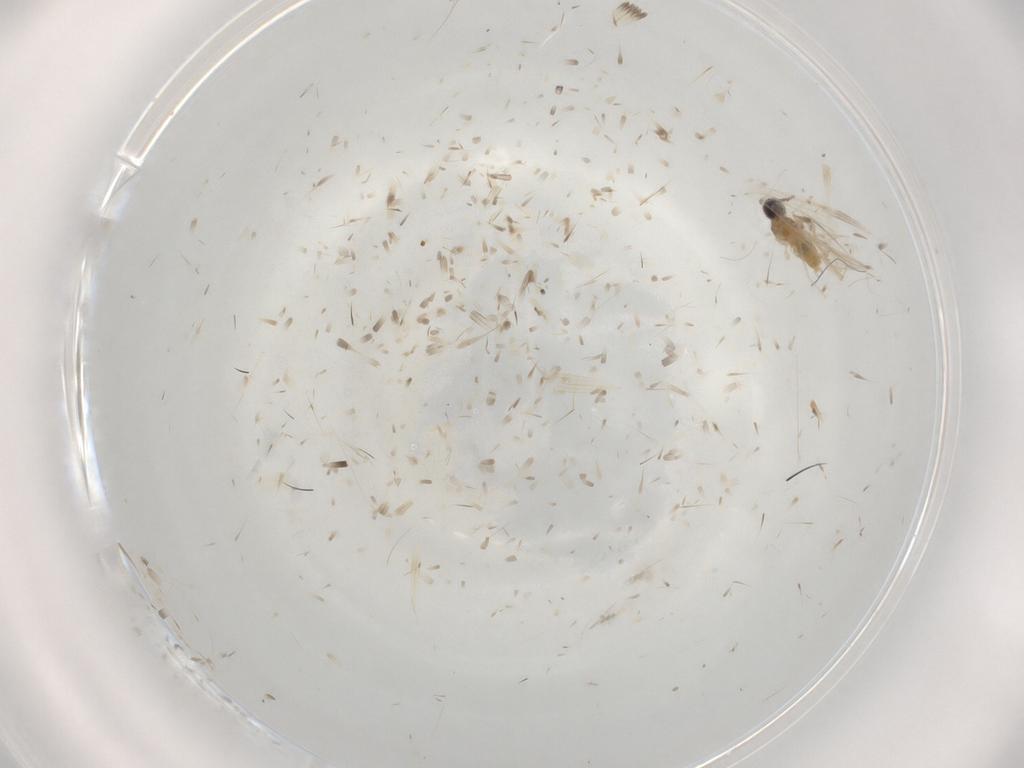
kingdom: Animalia
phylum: Arthropoda
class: Insecta
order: Diptera
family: Cecidomyiidae
